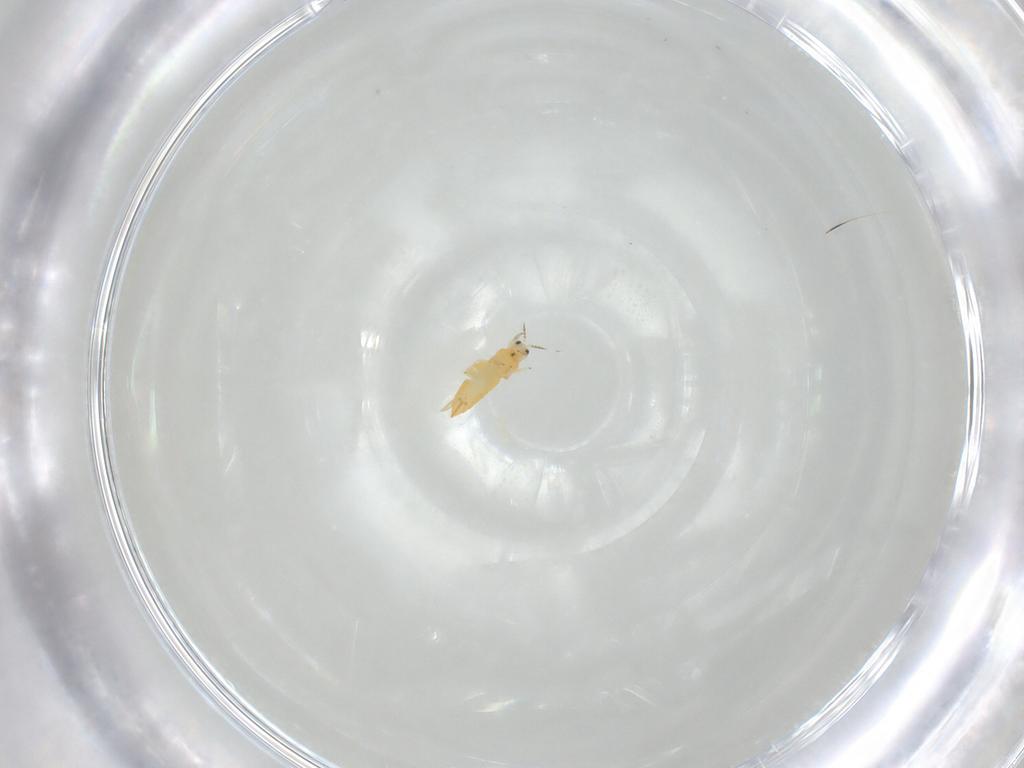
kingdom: Animalia
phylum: Arthropoda
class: Insecta
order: Thysanoptera
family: Thripidae
